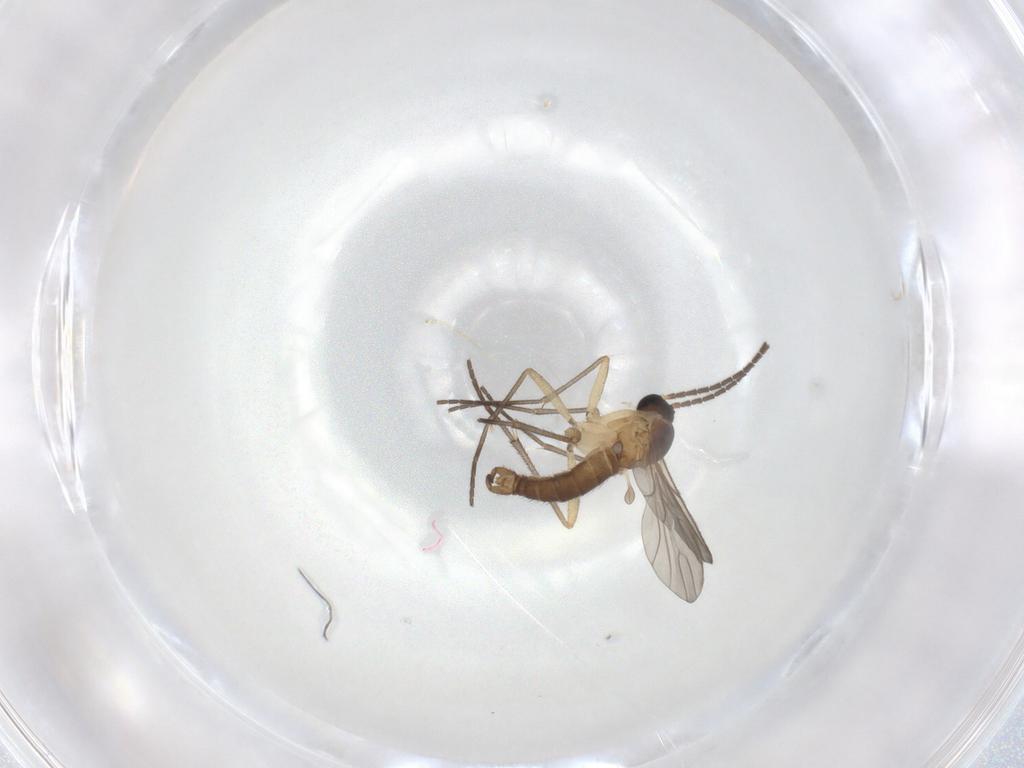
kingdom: Animalia
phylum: Arthropoda
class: Insecta
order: Diptera
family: Sciaridae
